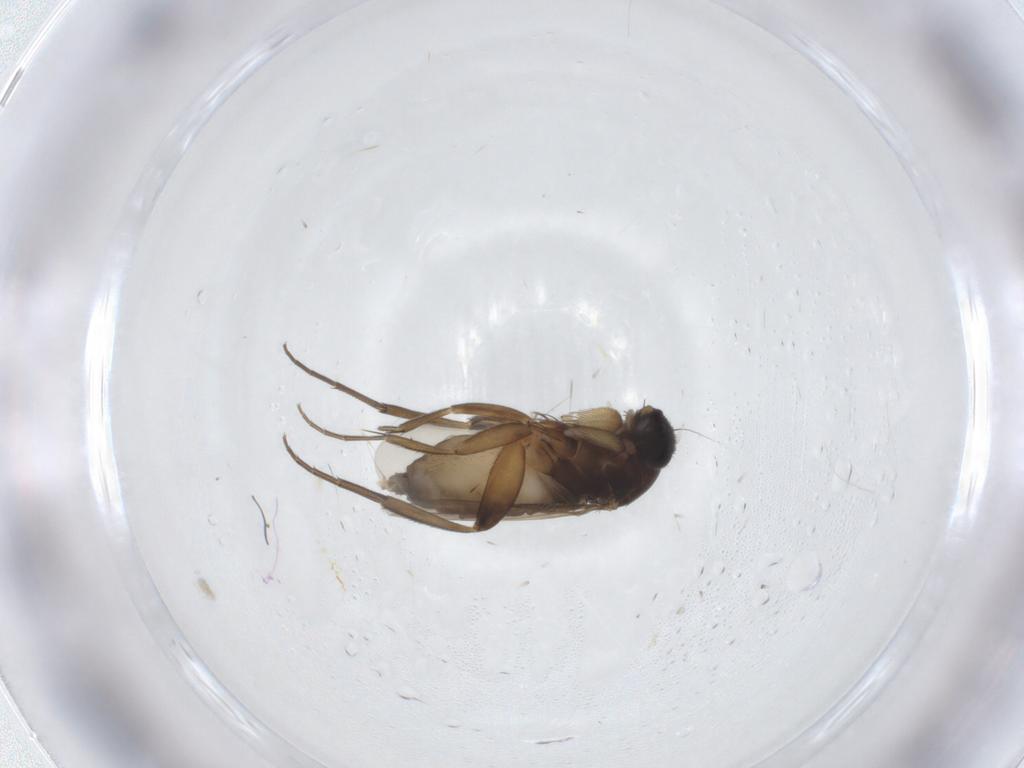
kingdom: Animalia
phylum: Arthropoda
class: Insecta
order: Diptera
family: Phoridae
